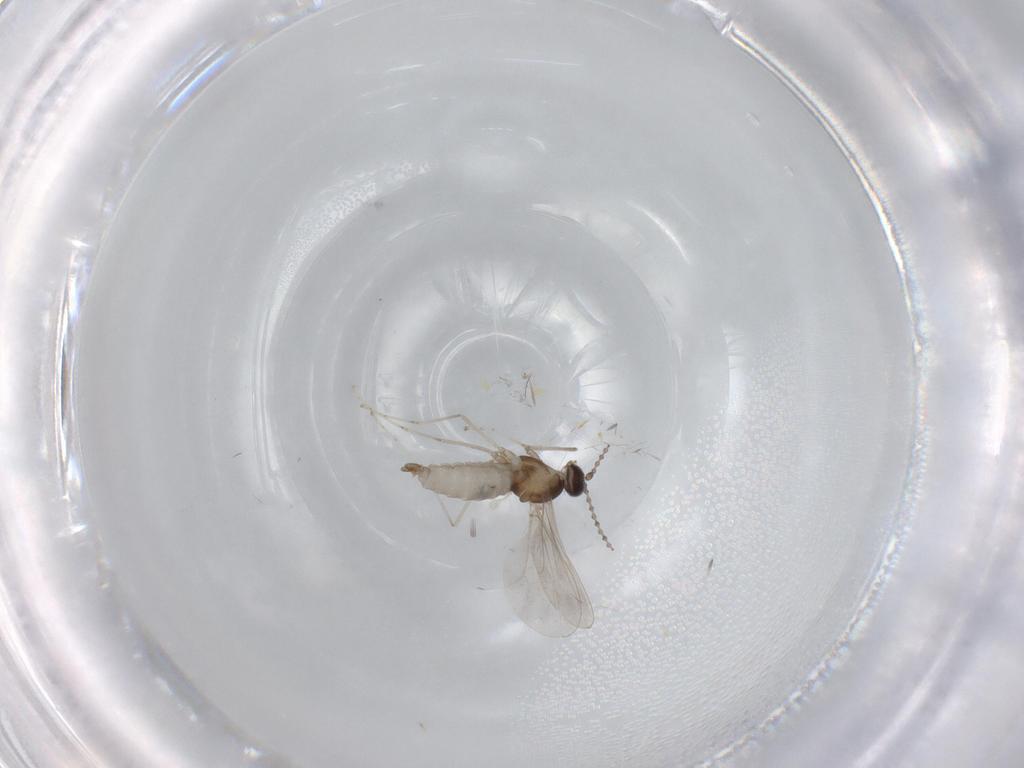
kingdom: Animalia
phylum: Arthropoda
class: Insecta
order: Diptera
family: Cecidomyiidae
